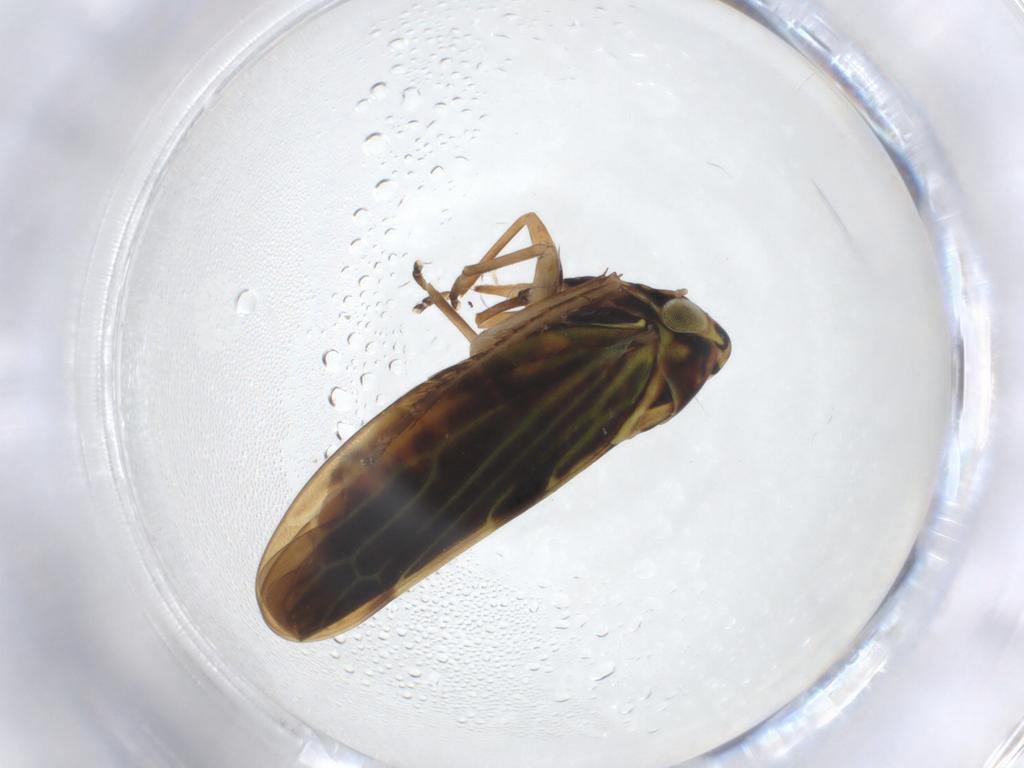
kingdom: Animalia
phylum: Arthropoda
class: Insecta
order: Hemiptera
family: Cicadellidae
